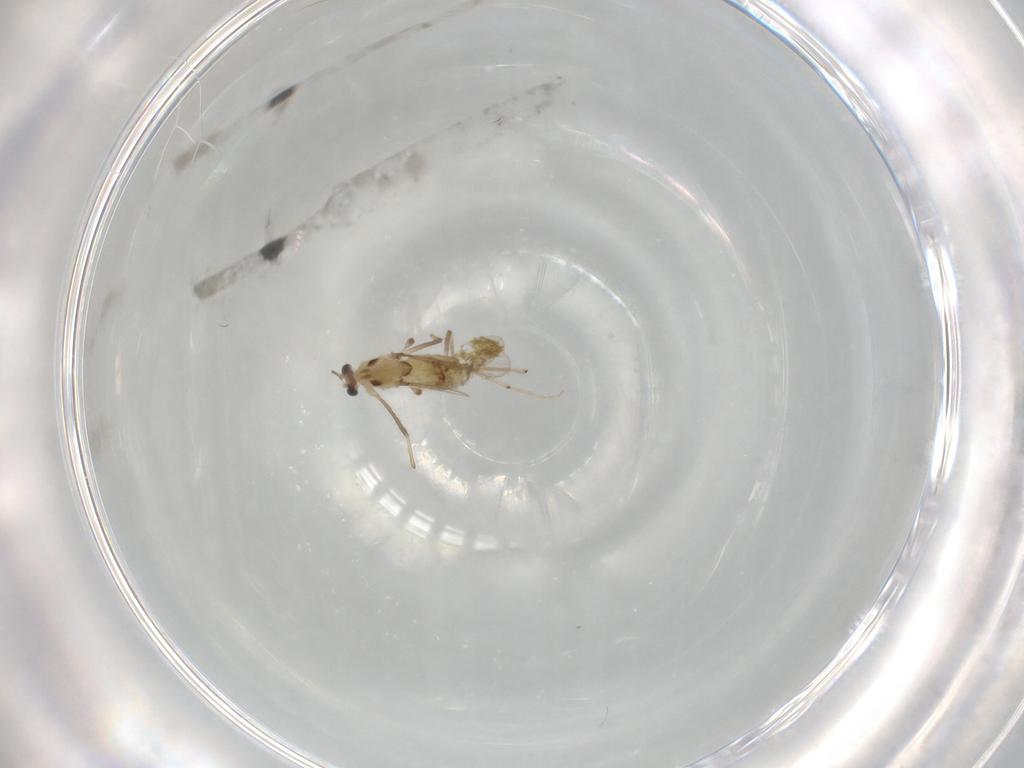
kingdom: Animalia
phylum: Arthropoda
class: Insecta
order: Diptera
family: Chironomidae
